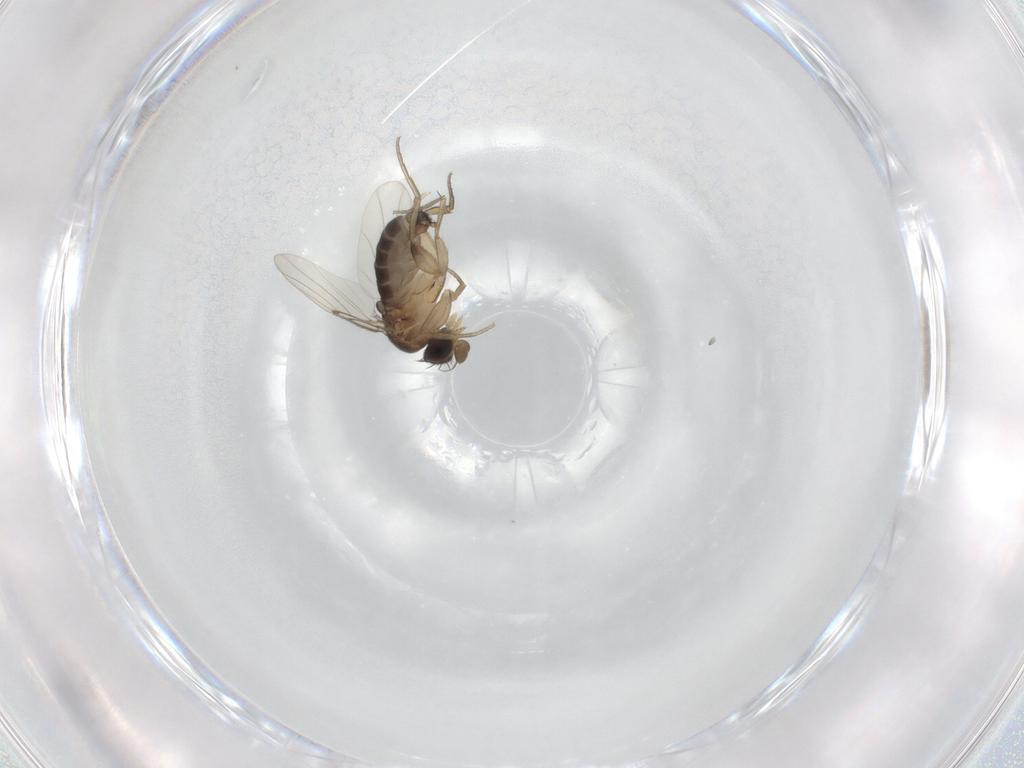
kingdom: Animalia
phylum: Arthropoda
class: Insecta
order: Diptera
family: Phoridae
